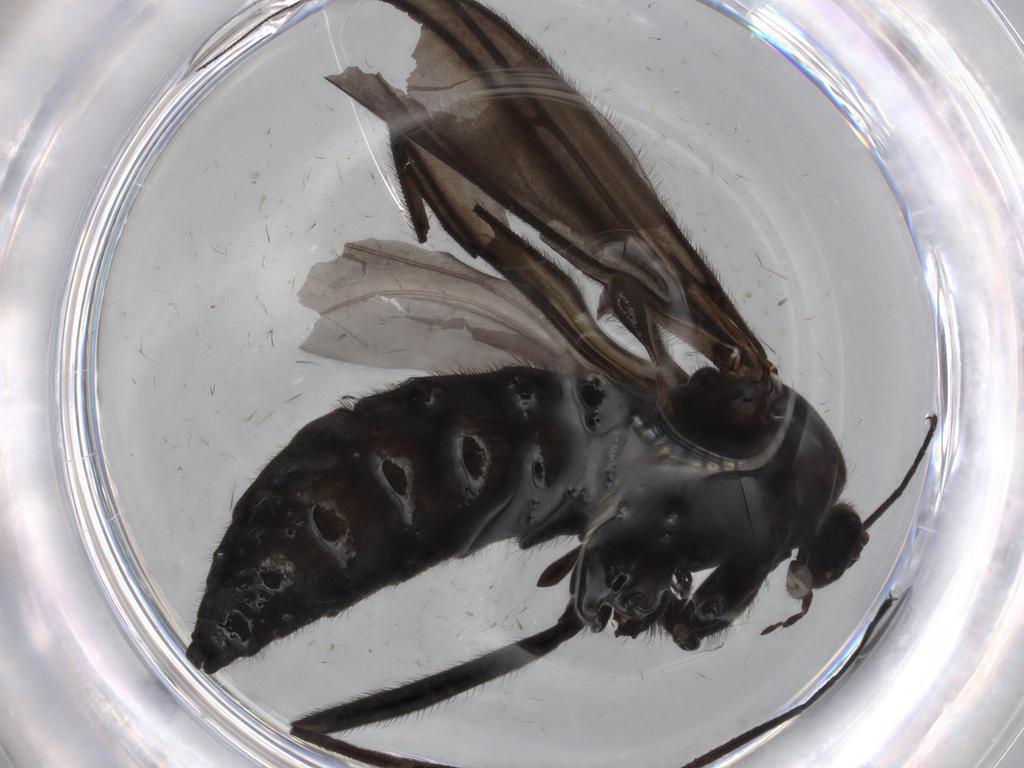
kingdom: Animalia
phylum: Arthropoda
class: Insecta
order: Diptera
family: Sciaridae
